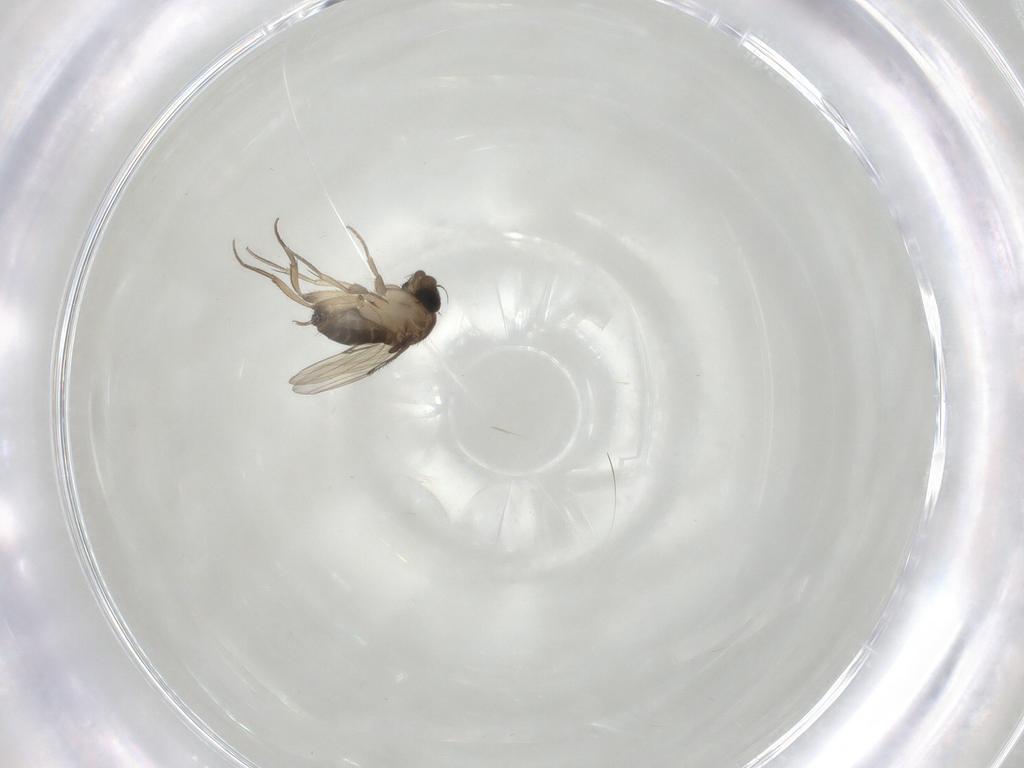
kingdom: Animalia
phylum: Arthropoda
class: Insecta
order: Diptera
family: Phoridae
